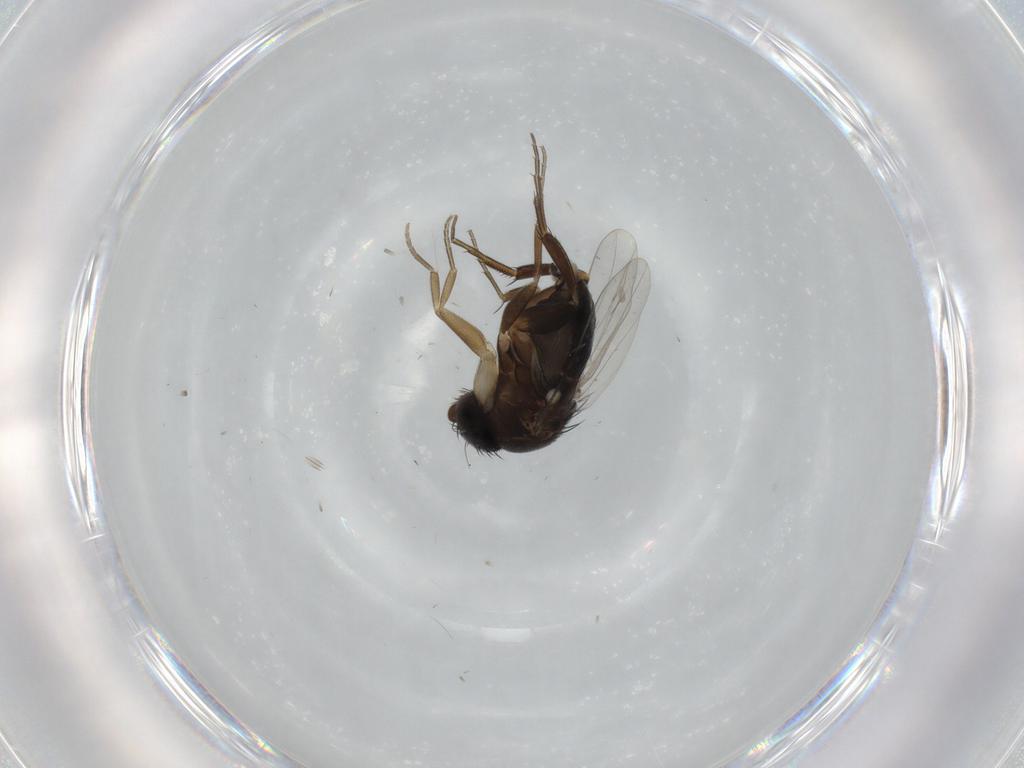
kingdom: Animalia
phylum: Arthropoda
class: Insecta
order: Diptera
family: Phoridae
